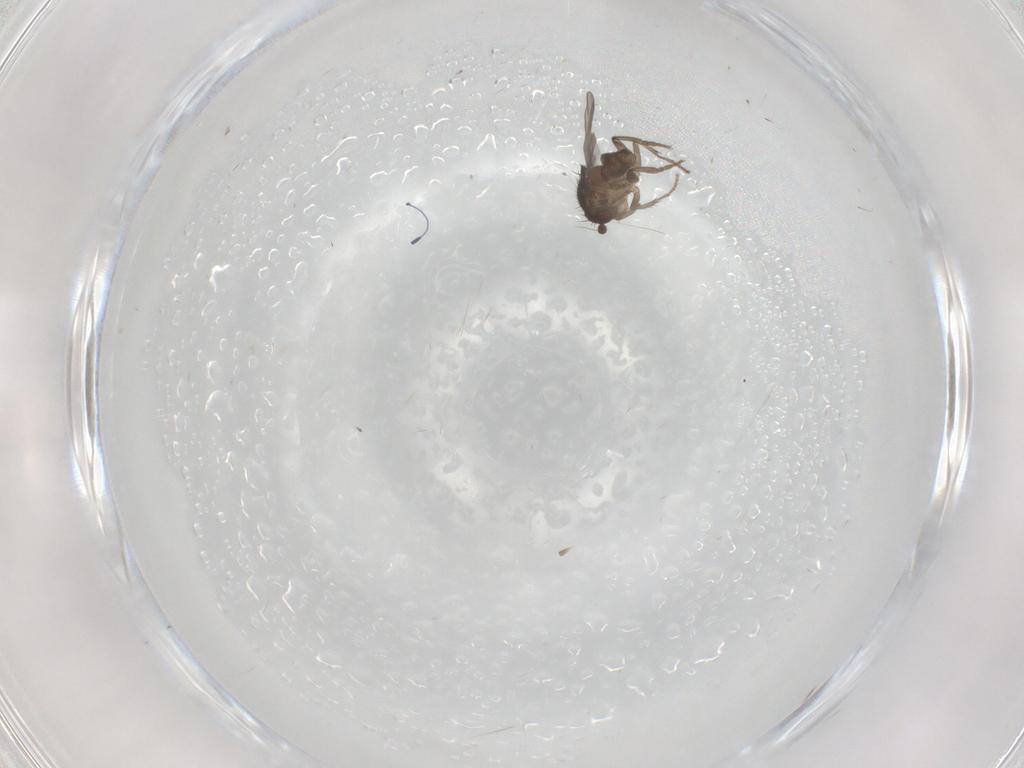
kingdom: Animalia
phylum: Arthropoda
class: Insecta
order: Diptera
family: Sphaeroceridae
